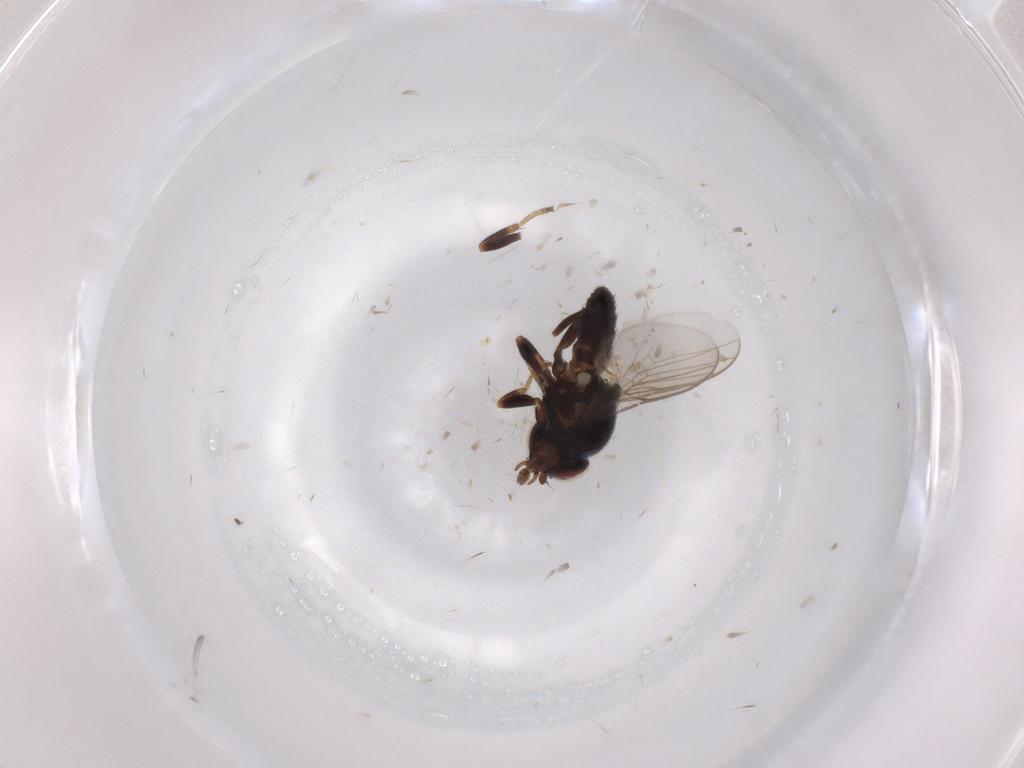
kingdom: Animalia
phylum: Arthropoda
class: Insecta
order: Diptera
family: Chloropidae
